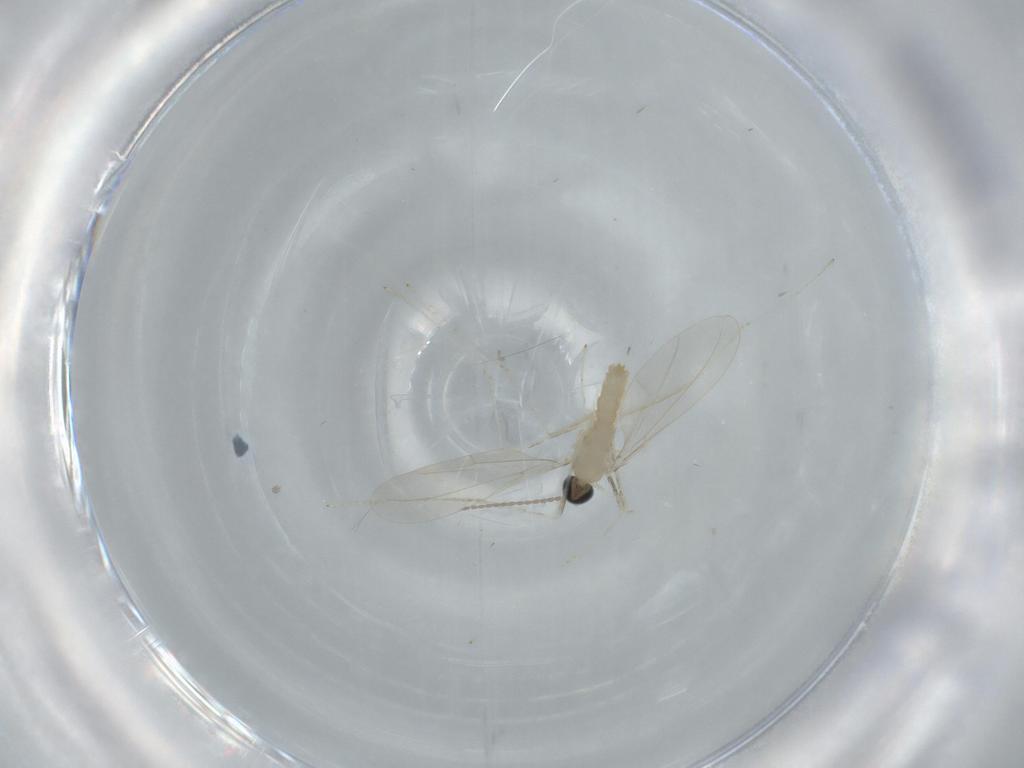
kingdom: Animalia
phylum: Arthropoda
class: Insecta
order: Diptera
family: Cecidomyiidae
